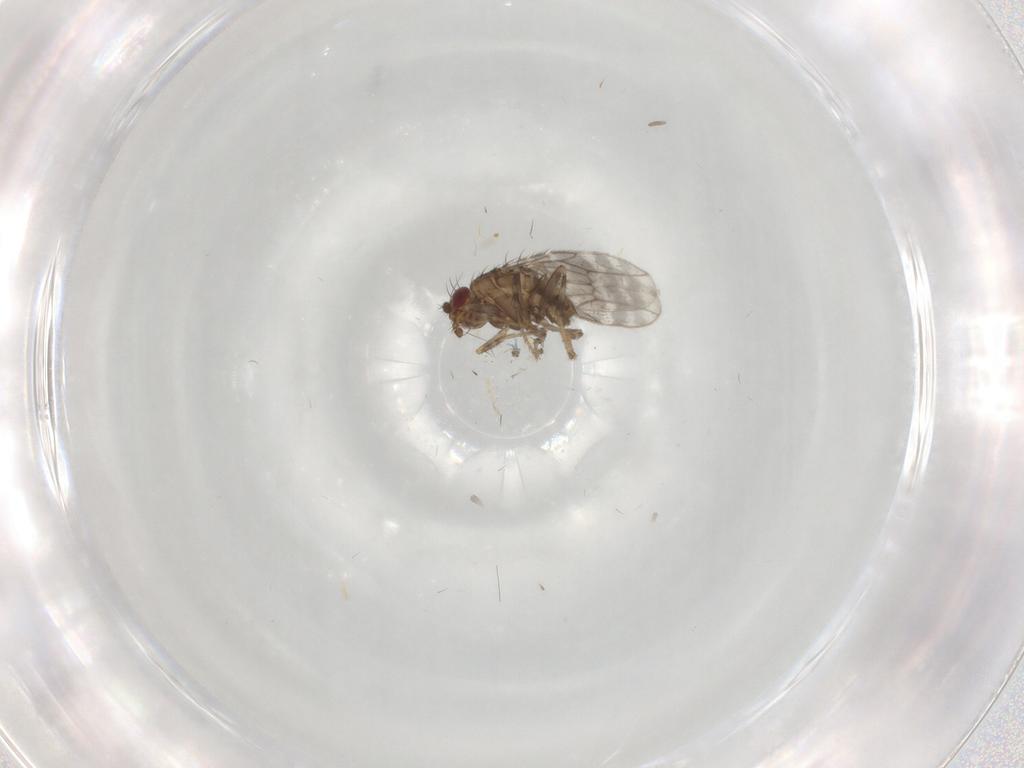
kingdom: Animalia
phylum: Arthropoda
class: Insecta
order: Diptera
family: Sphaeroceridae
